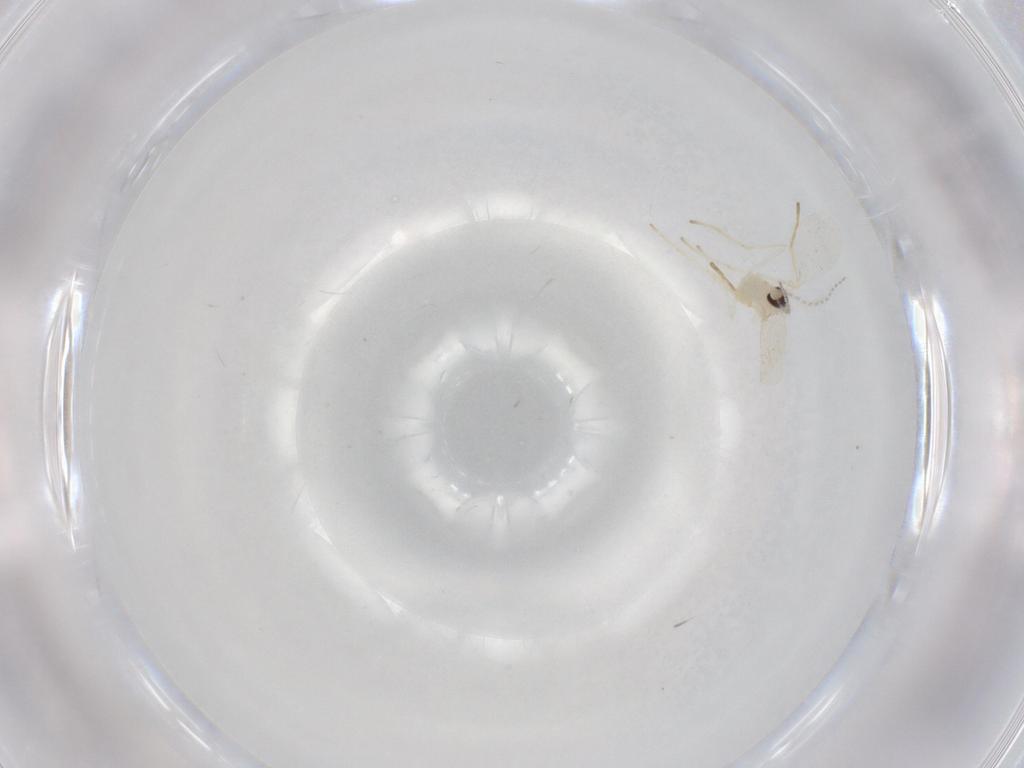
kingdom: Animalia
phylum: Arthropoda
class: Insecta
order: Diptera
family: Cecidomyiidae
